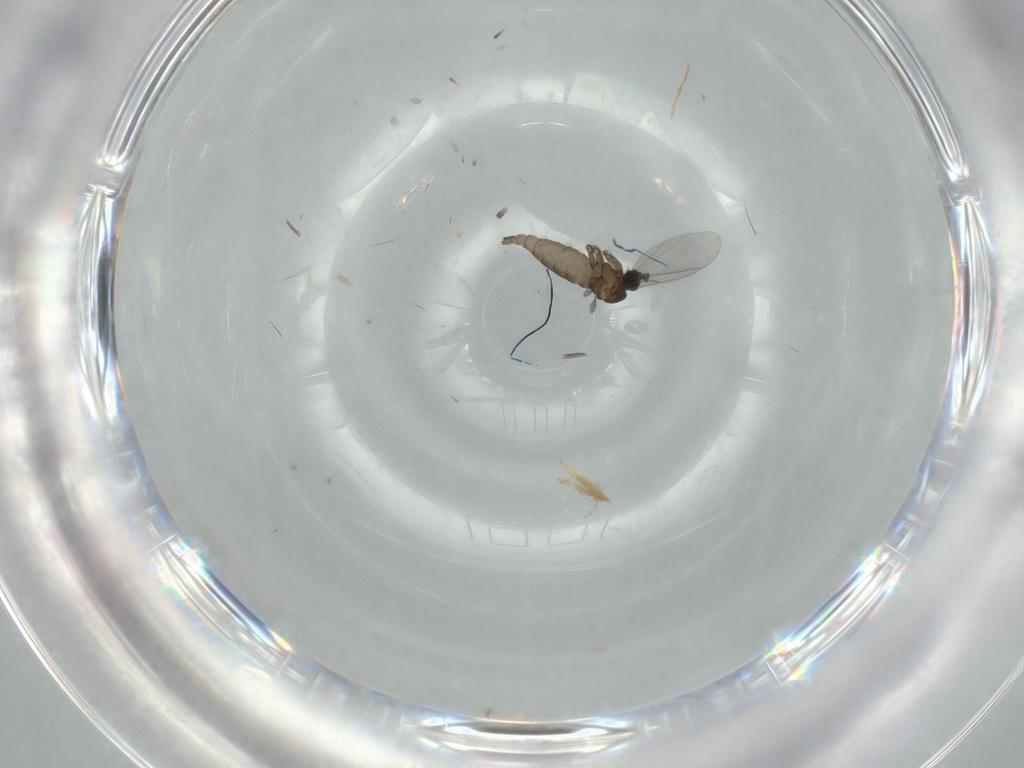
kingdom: Animalia
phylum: Arthropoda
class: Insecta
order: Diptera
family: Sciaridae
